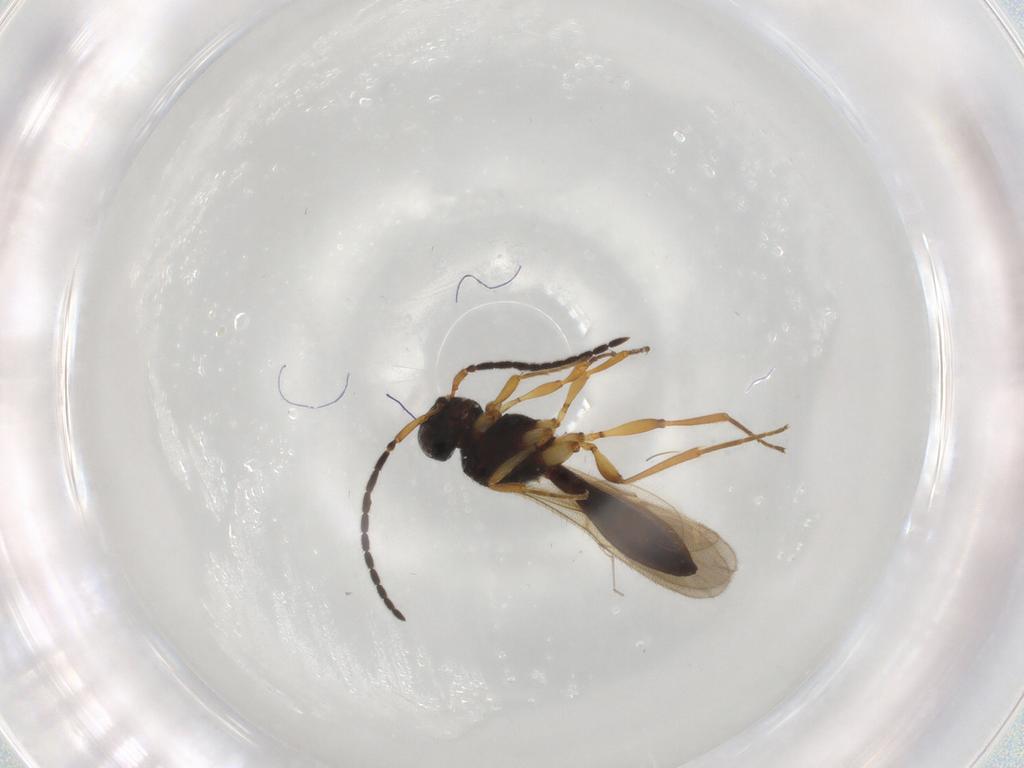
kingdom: Animalia
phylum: Arthropoda
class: Insecta
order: Hymenoptera
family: Scelionidae
